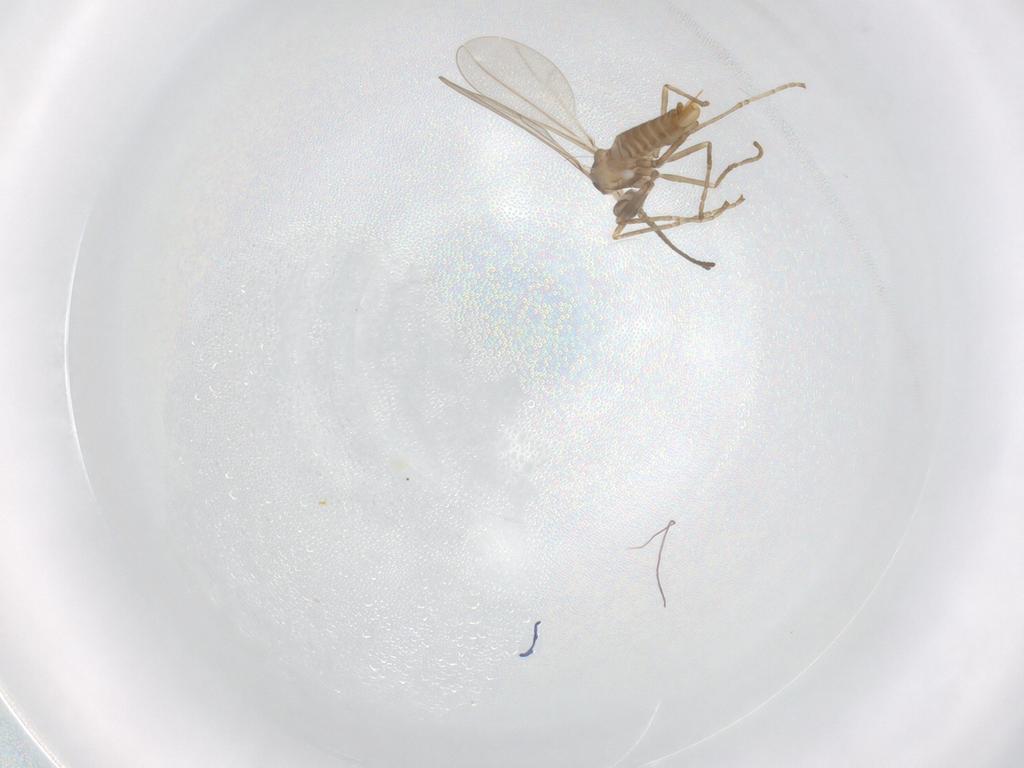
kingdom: Animalia
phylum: Arthropoda
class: Insecta
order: Diptera
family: Cecidomyiidae
